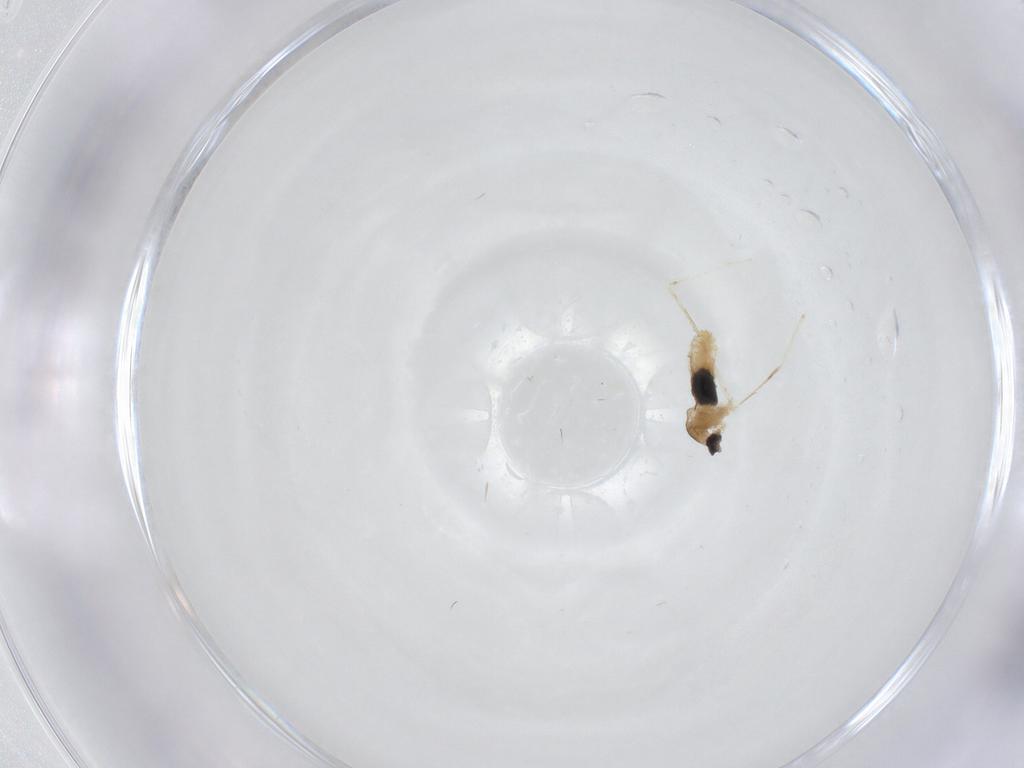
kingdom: Animalia
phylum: Arthropoda
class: Insecta
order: Diptera
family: Cecidomyiidae
